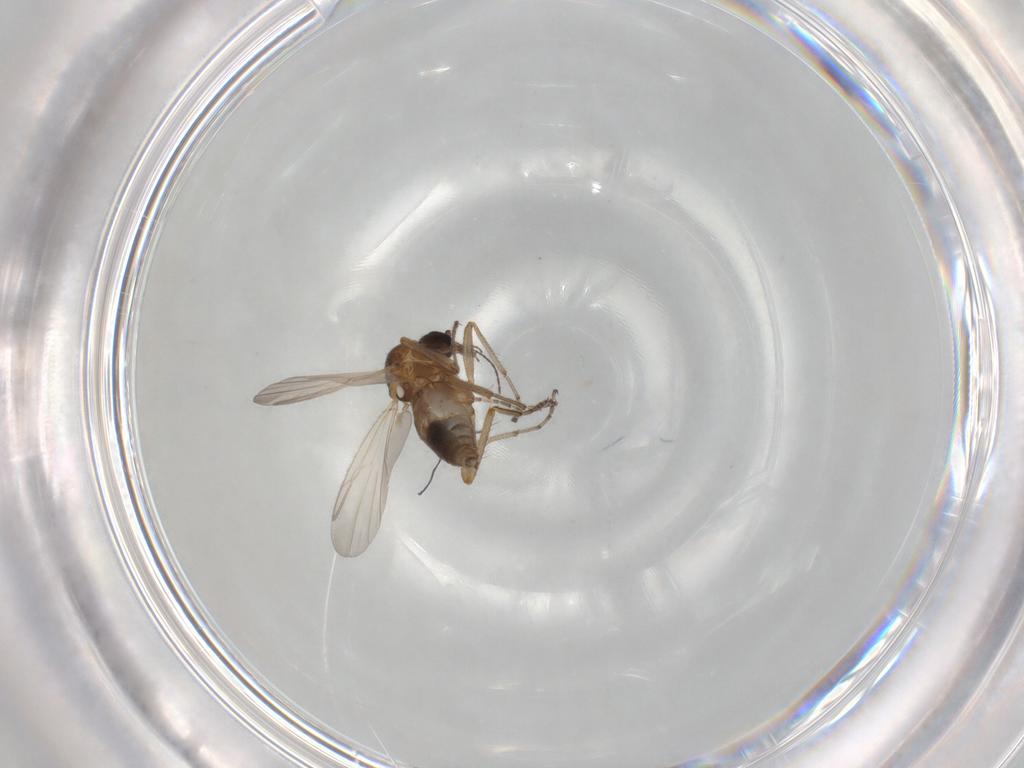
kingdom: Animalia
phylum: Arthropoda
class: Insecta
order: Diptera
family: Ceratopogonidae
